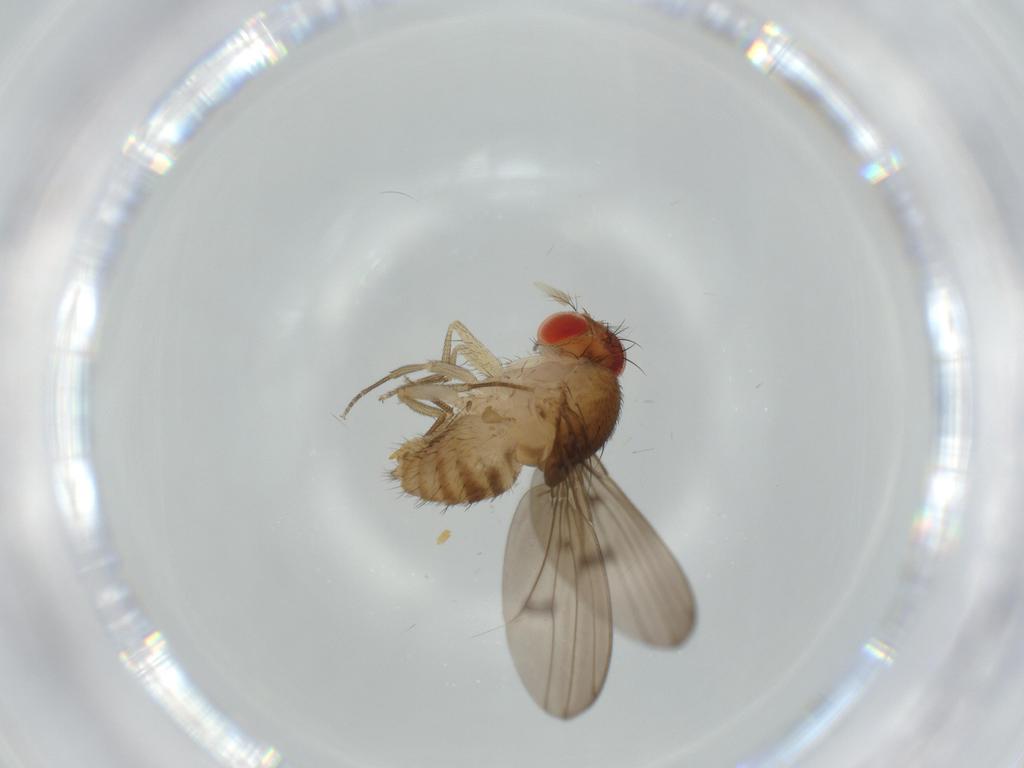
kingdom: Animalia
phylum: Arthropoda
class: Insecta
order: Diptera
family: Drosophilidae
